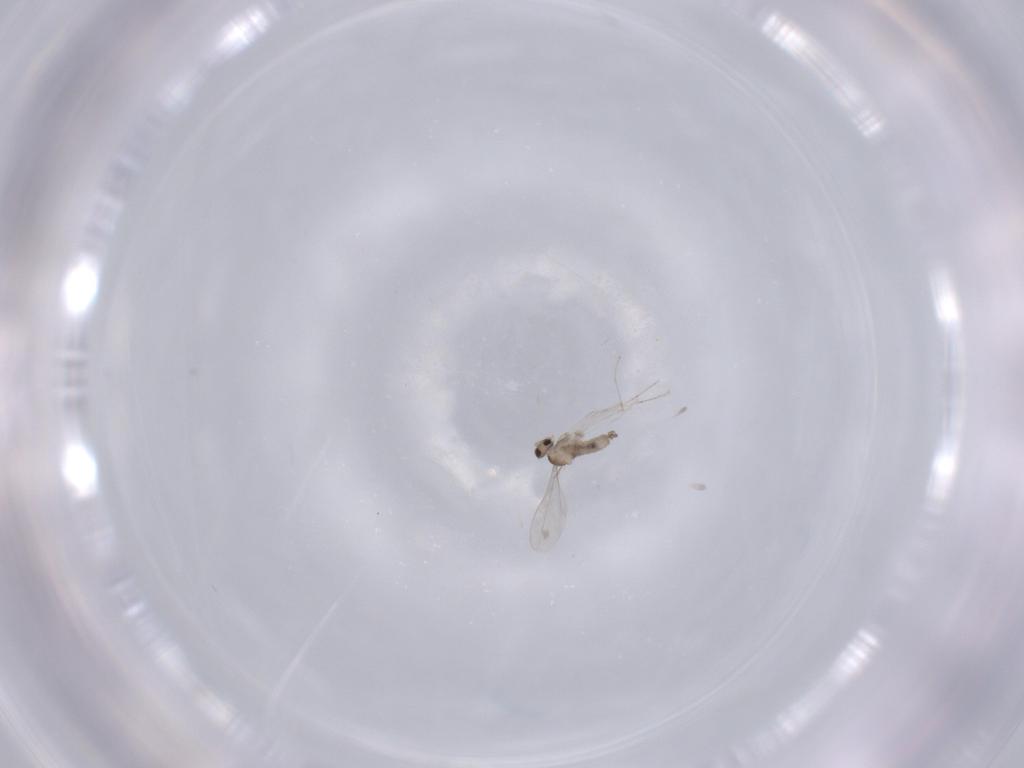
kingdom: Animalia
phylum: Arthropoda
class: Insecta
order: Diptera
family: Cecidomyiidae
